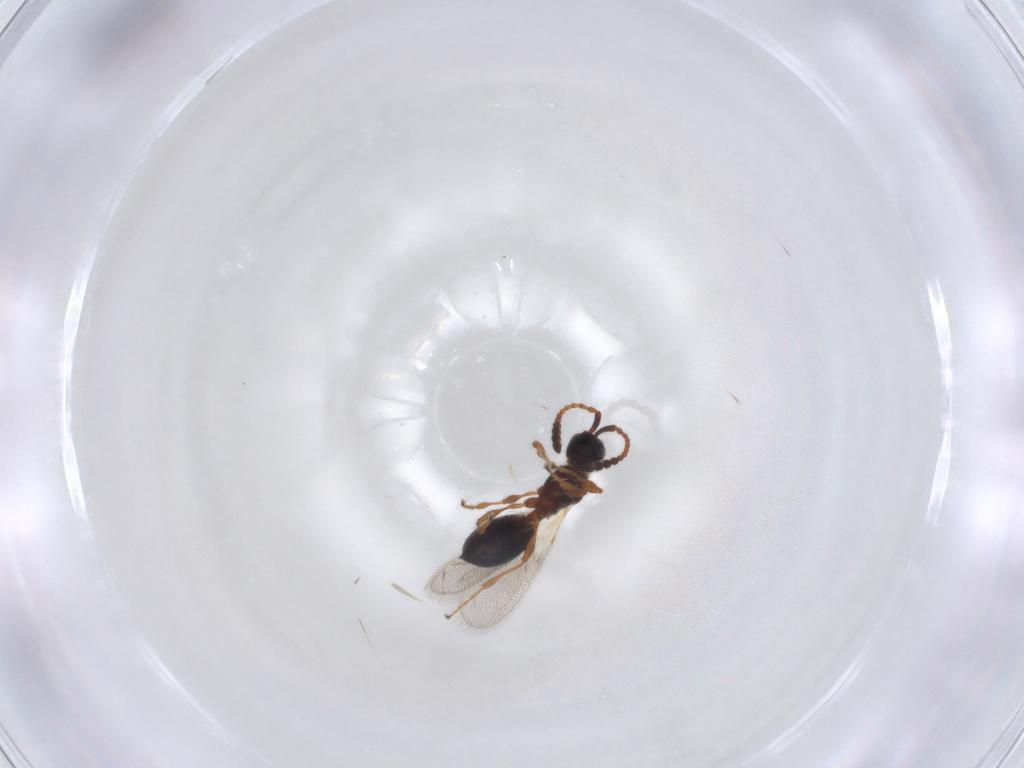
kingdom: Animalia
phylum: Arthropoda
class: Insecta
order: Hymenoptera
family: Diapriidae
